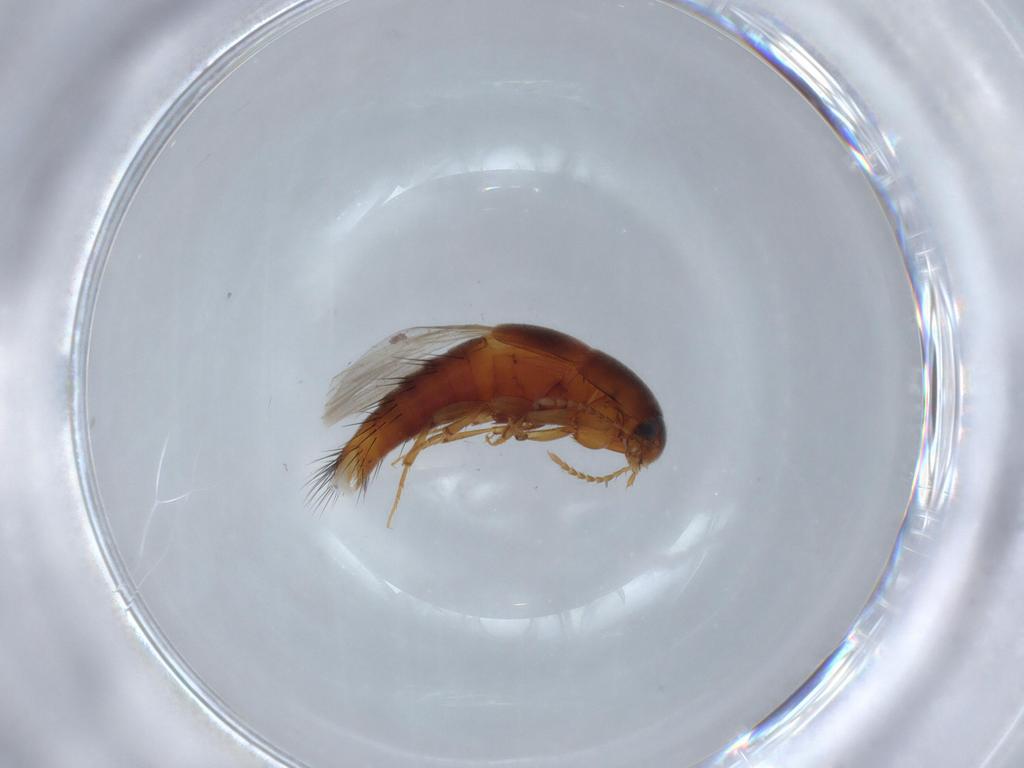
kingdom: Animalia
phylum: Arthropoda
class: Insecta
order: Coleoptera
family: Staphylinidae
